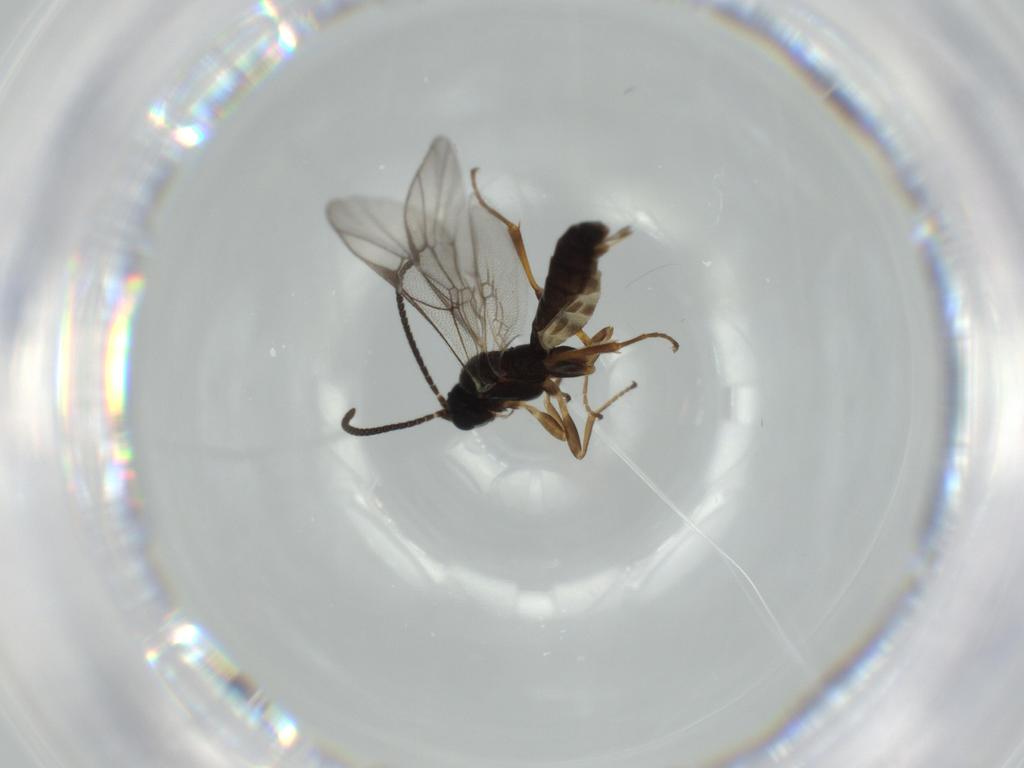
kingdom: Animalia
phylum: Arthropoda
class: Insecta
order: Hymenoptera
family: Ichneumonidae
